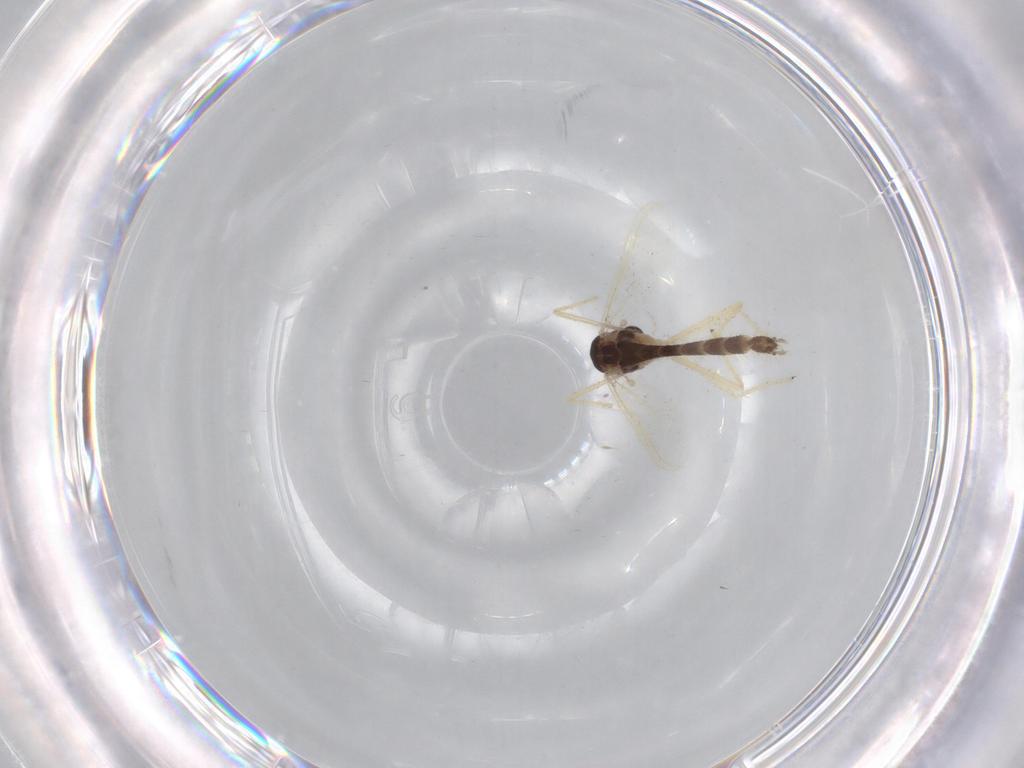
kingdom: Animalia
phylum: Arthropoda
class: Insecta
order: Diptera
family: Chironomidae
